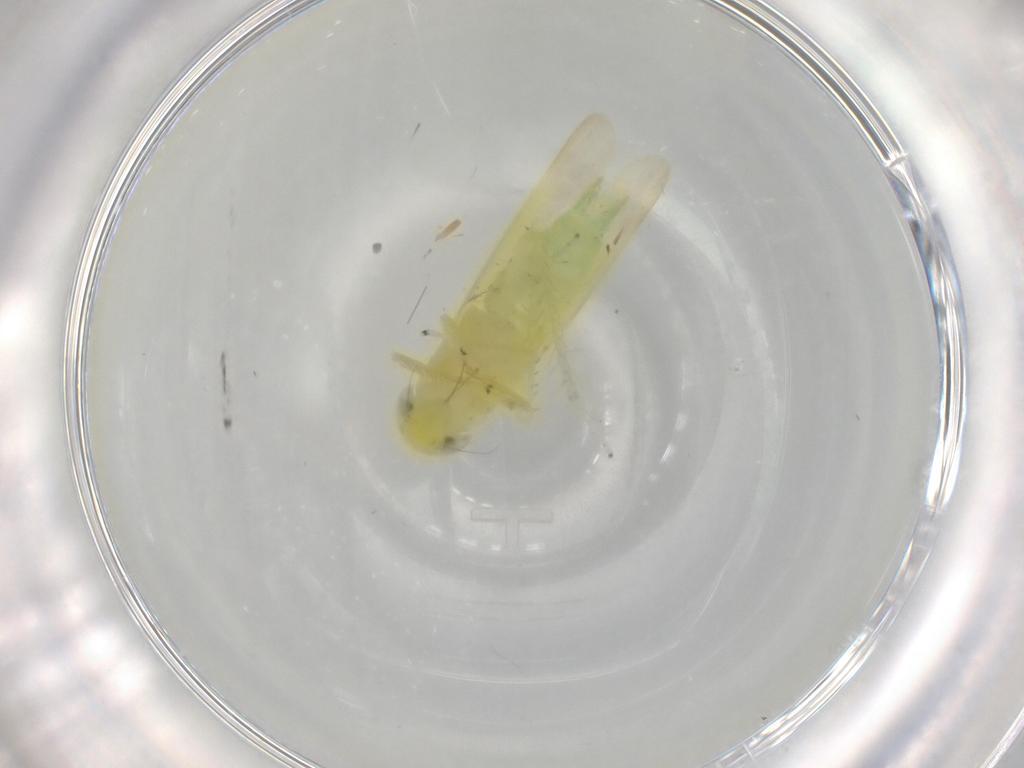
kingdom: Animalia
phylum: Arthropoda
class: Insecta
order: Hemiptera
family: Cicadellidae
